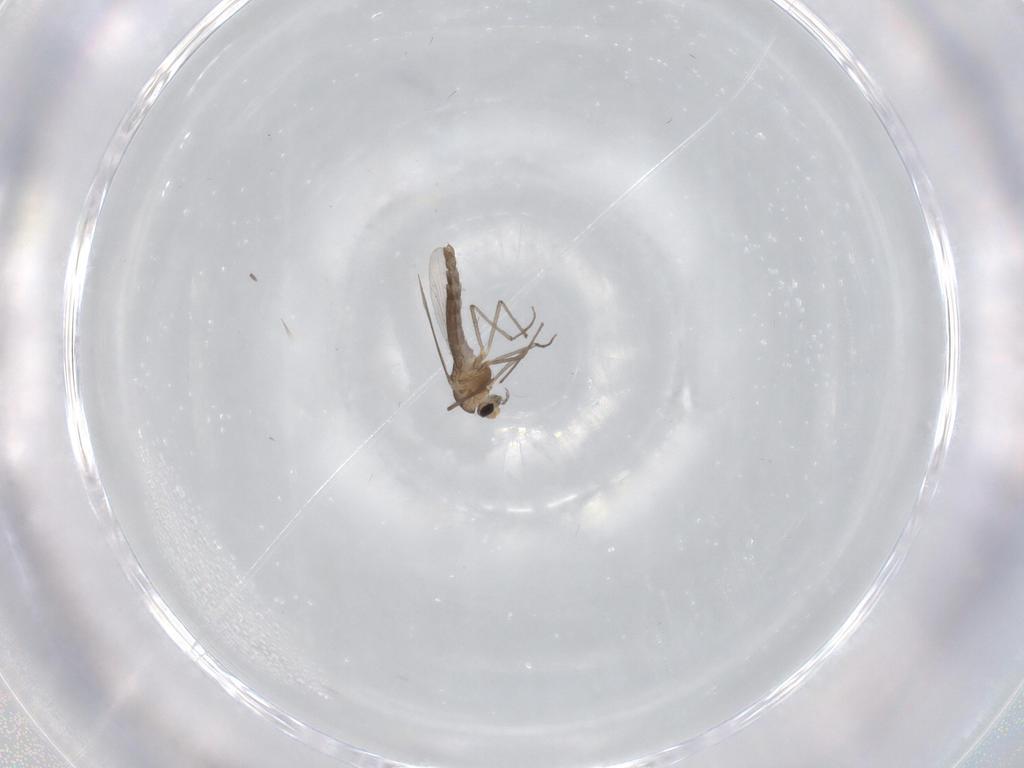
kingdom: Animalia
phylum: Arthropoda
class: Insecta
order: Diptera
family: Chironomidae
